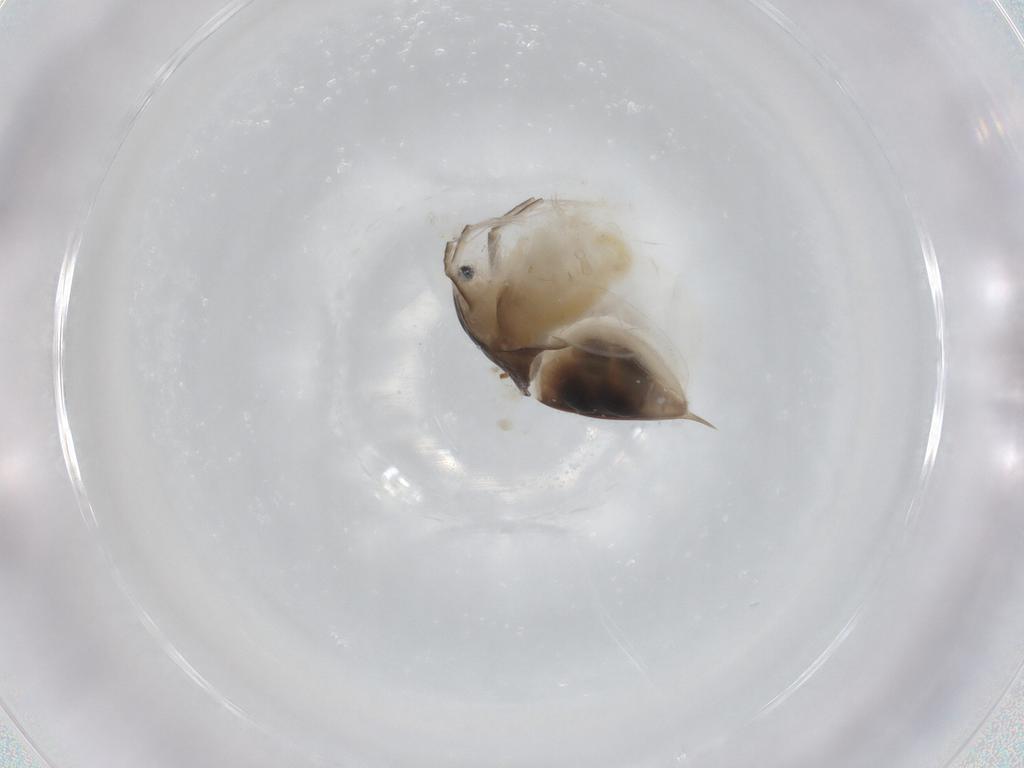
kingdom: Animalia
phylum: Arthropoda
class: Branchiopoda
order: Diplostraca
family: Daphniidae
